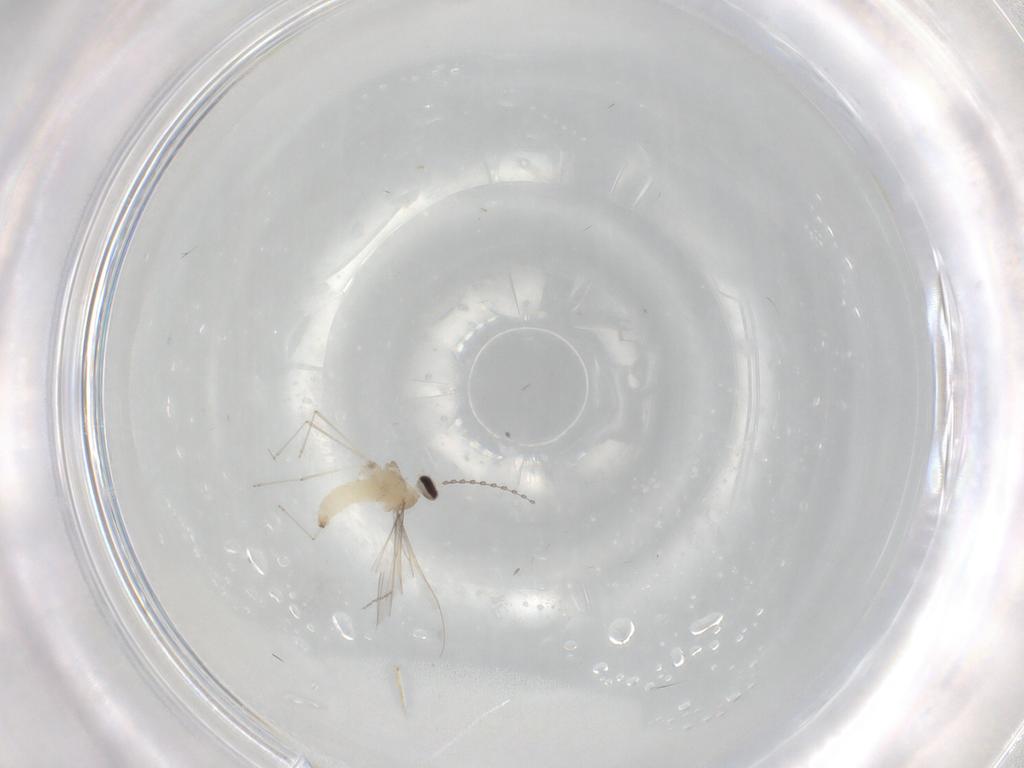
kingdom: Animalia
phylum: Arthropoda
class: Insecta
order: Diptera
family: Cecidomyiidae
